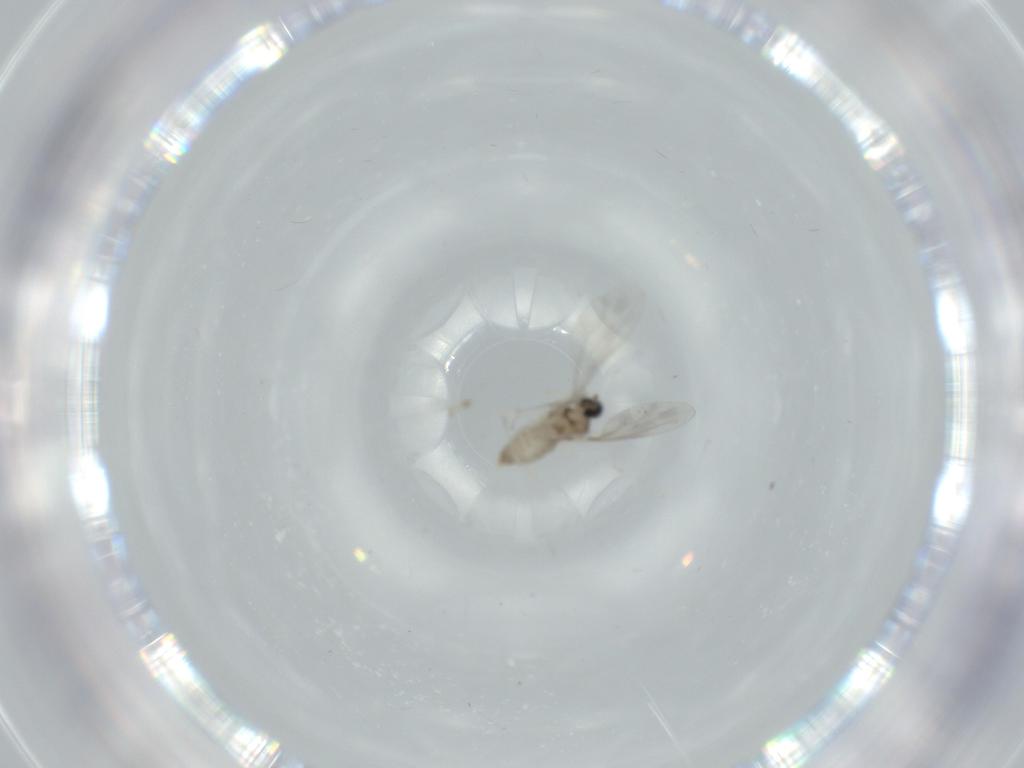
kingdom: Animalia
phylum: Arthropoda
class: Insecta
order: Diptera
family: Cecidomyiidae
